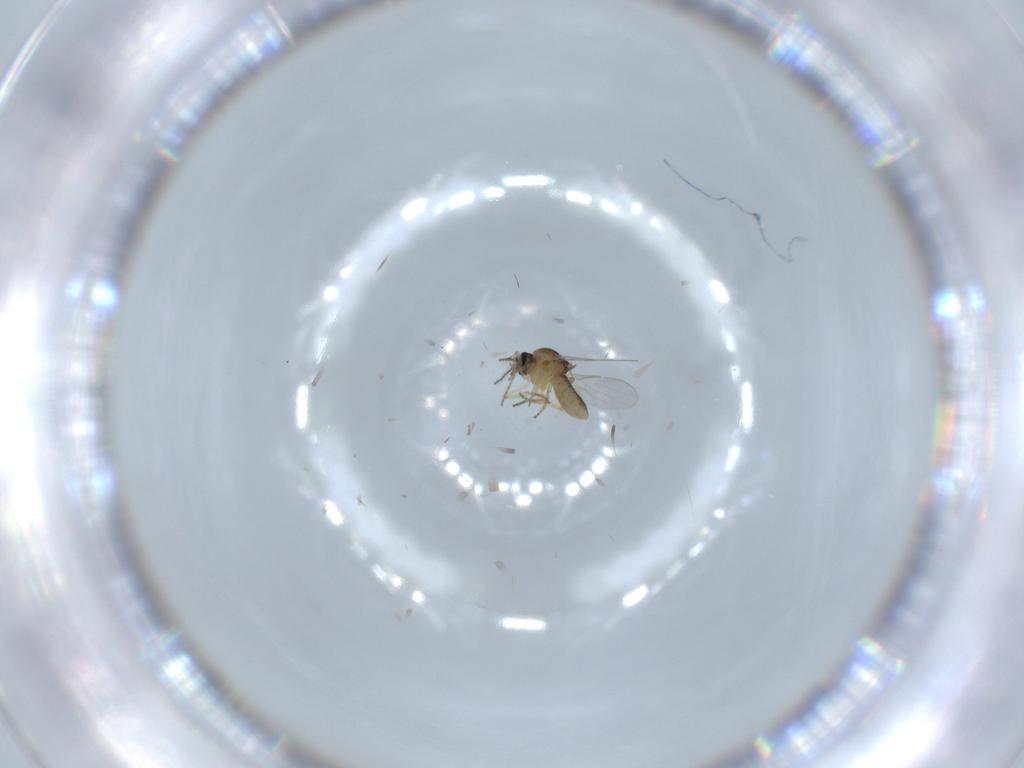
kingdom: Animalia
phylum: Arthropoda
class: Insecta
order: Diptera
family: Ceratopogonidae
